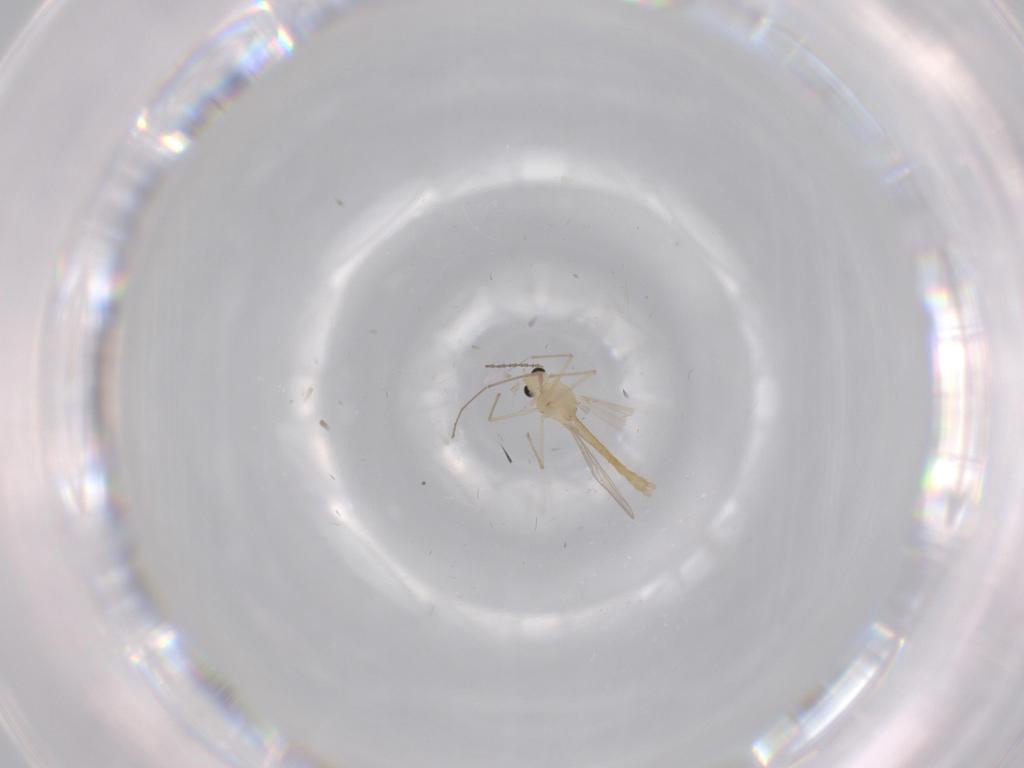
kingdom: Animalia
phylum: Arthropoda
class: Insecta
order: Diptera
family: Chironomidae
